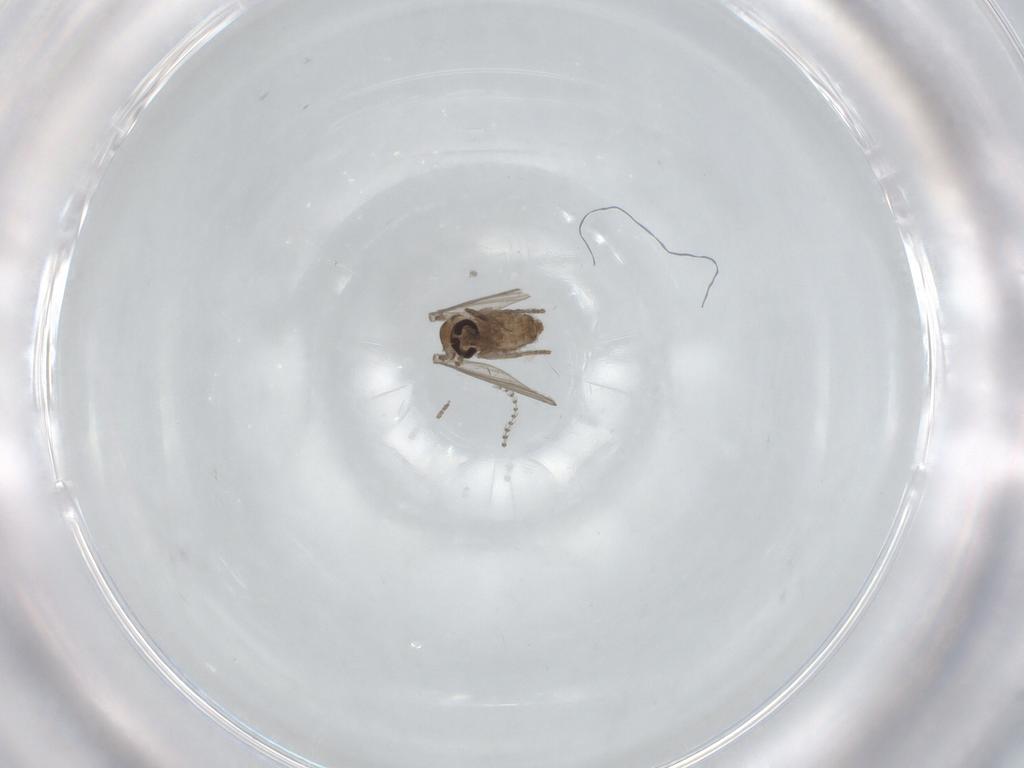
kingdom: Animalia
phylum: Arthropoda
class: Insecta
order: Diptera
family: Psychodidae
